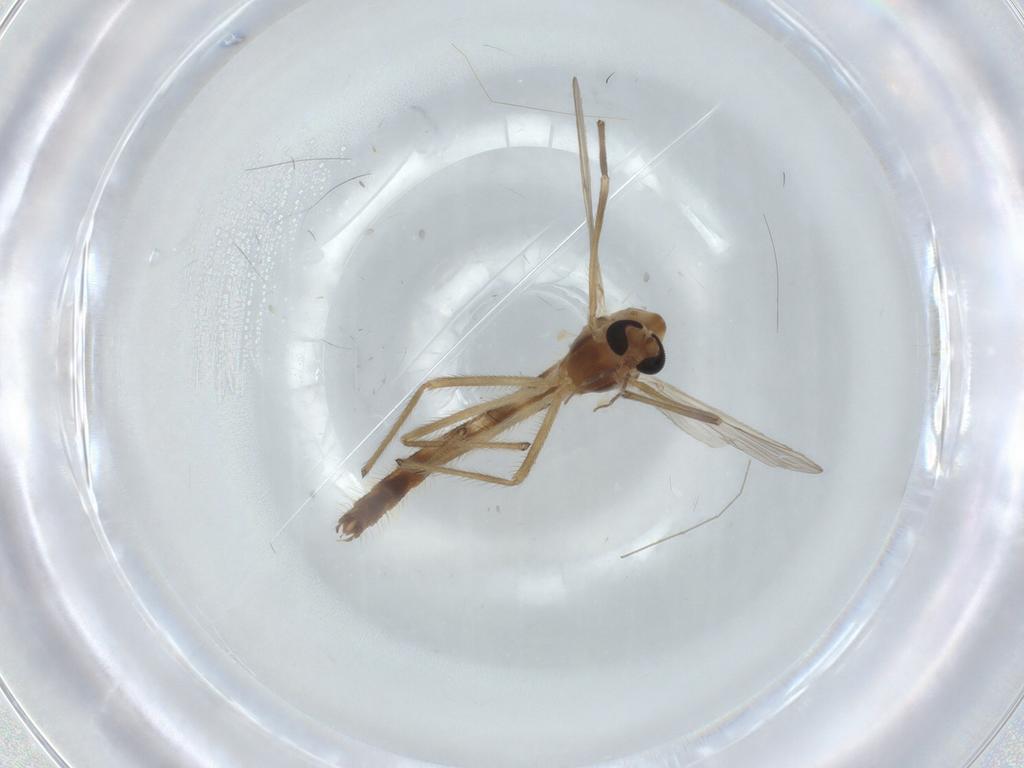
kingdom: Animalia
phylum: Arthropoda
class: Insecta
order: Diptera
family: Chironomidae
